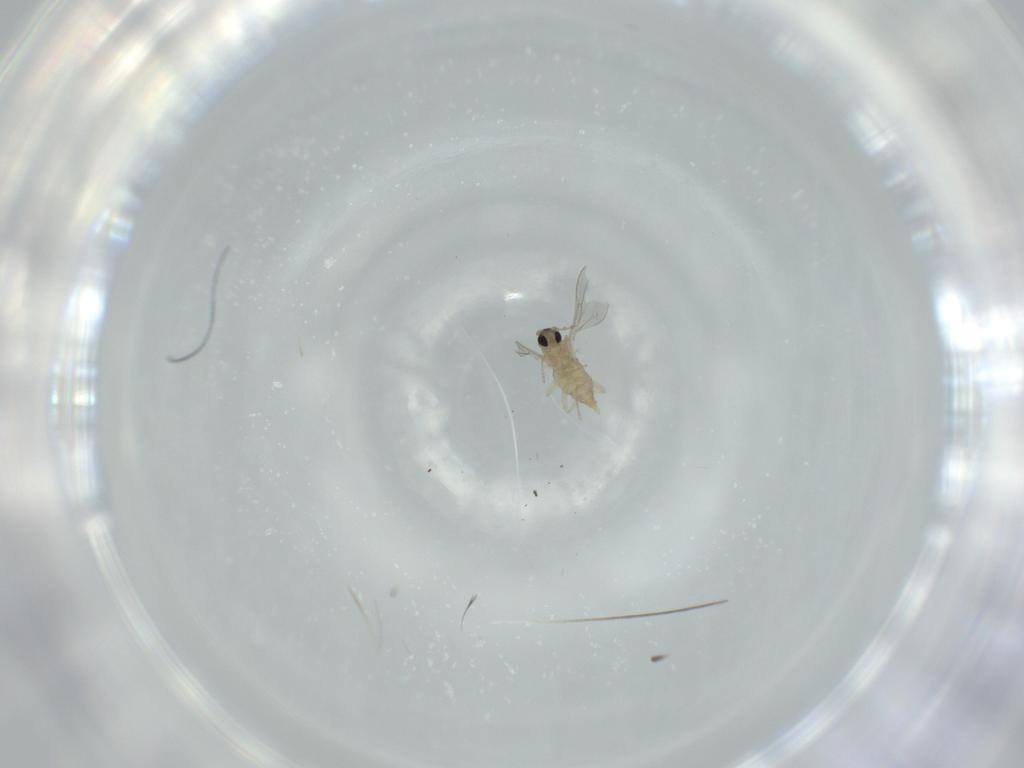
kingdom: Animalia
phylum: Arthropoda
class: Insecta
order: Diptera
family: Cecidomyiidae
